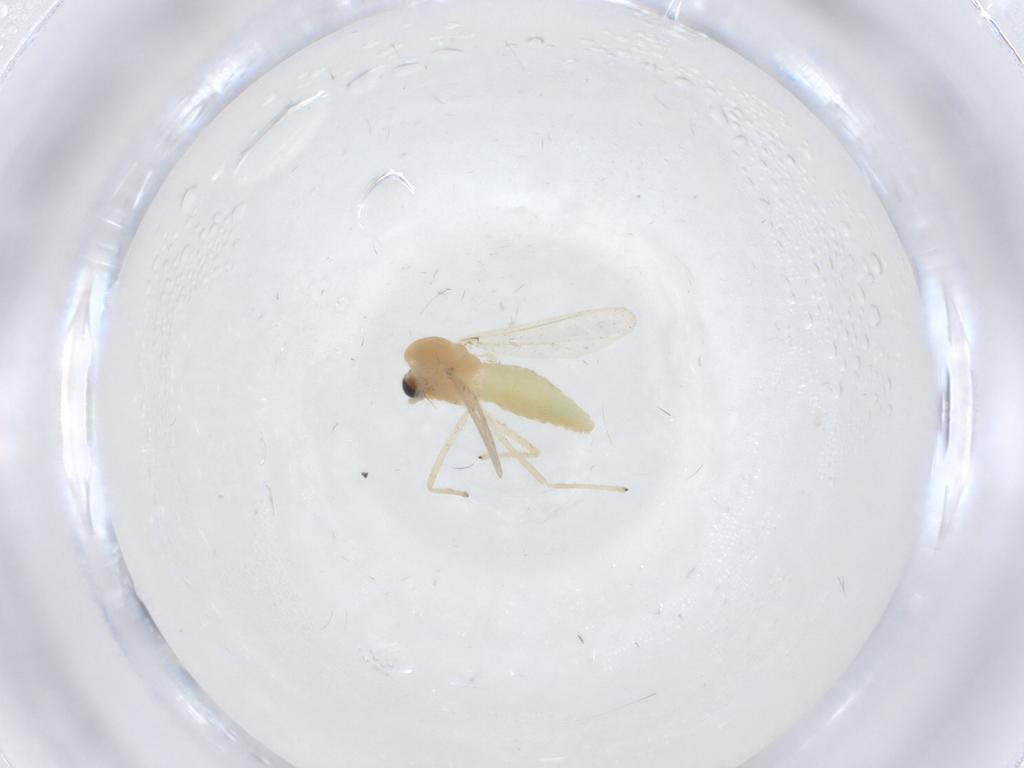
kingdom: Animalia
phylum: Arthropoda
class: Insecta
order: Diptera
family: Chironomidae
